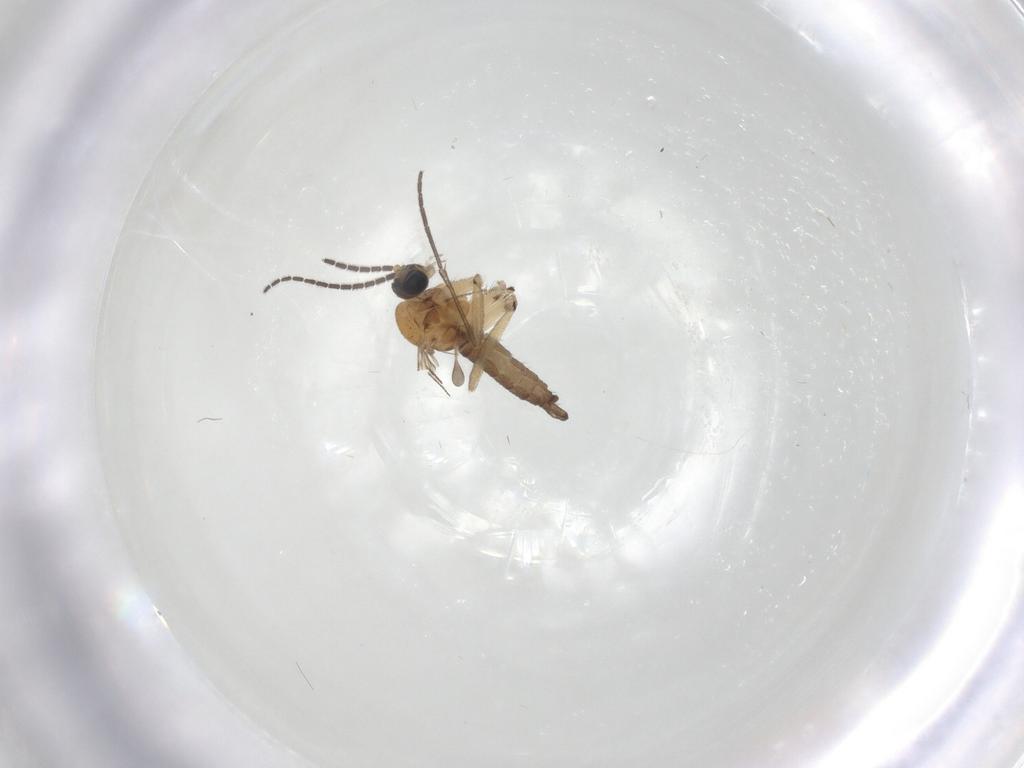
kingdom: Animalia
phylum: Arthropoda
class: Insecta
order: Diptera
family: Sciaridae
